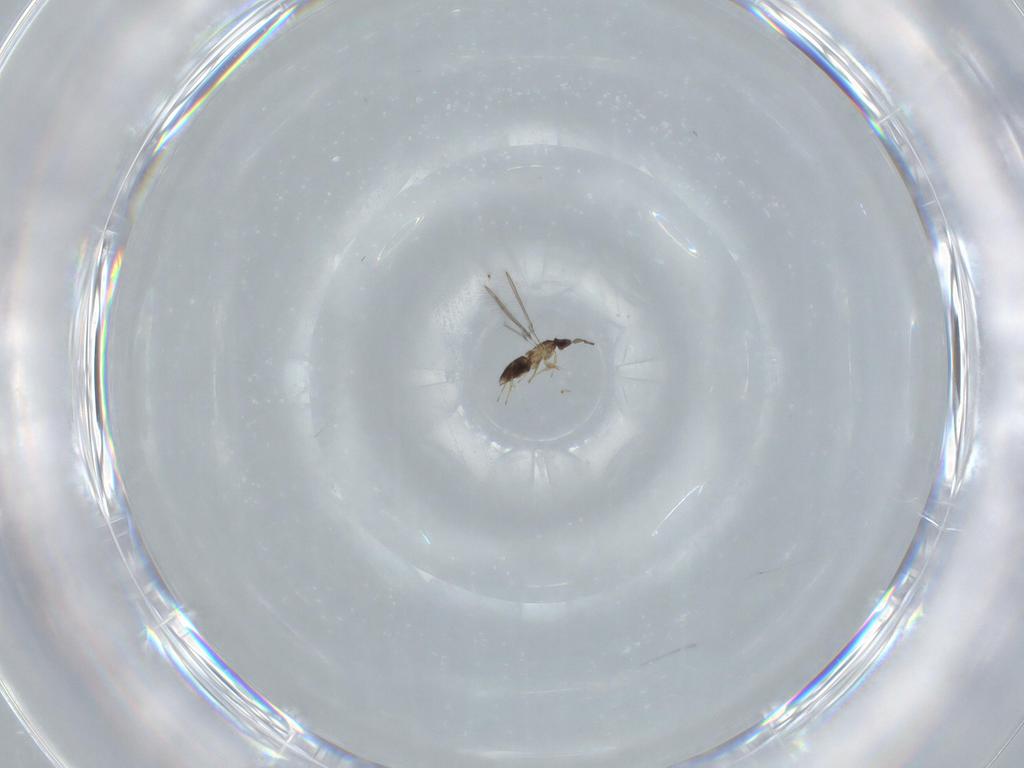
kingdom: Animalia
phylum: Arthropoda
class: Insecta
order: Hymenoptera
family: Mymaridae
